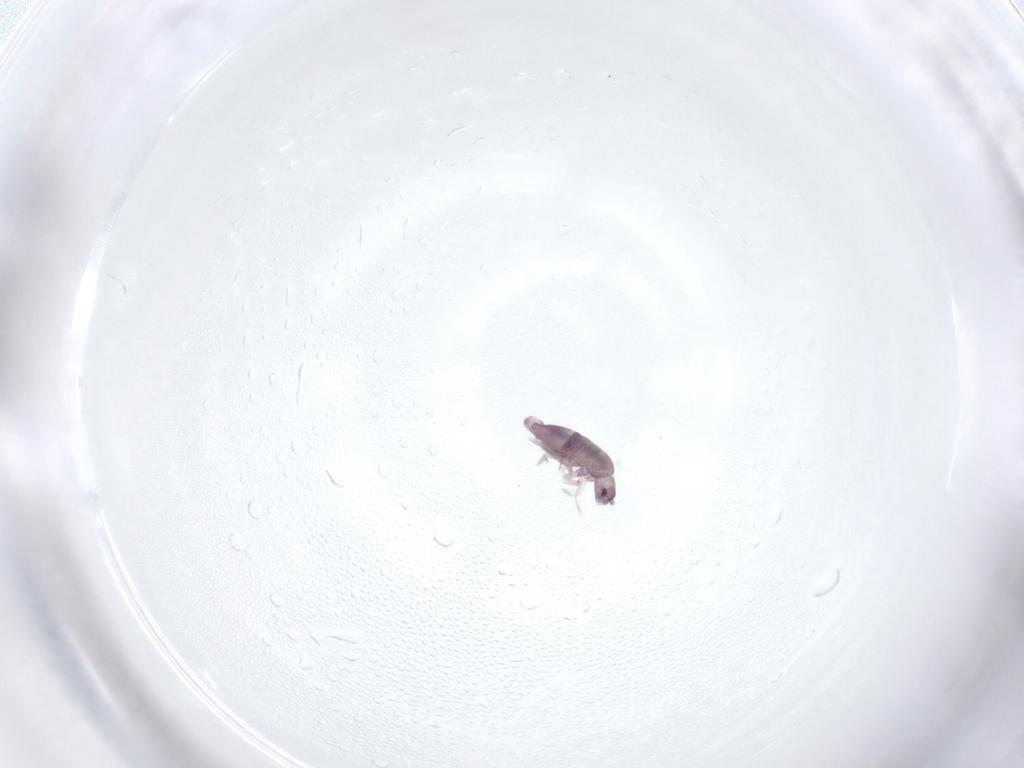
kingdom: Animalia
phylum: Arthropoda
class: Collembola
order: Entomobryomorpha
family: Entomobryidae
